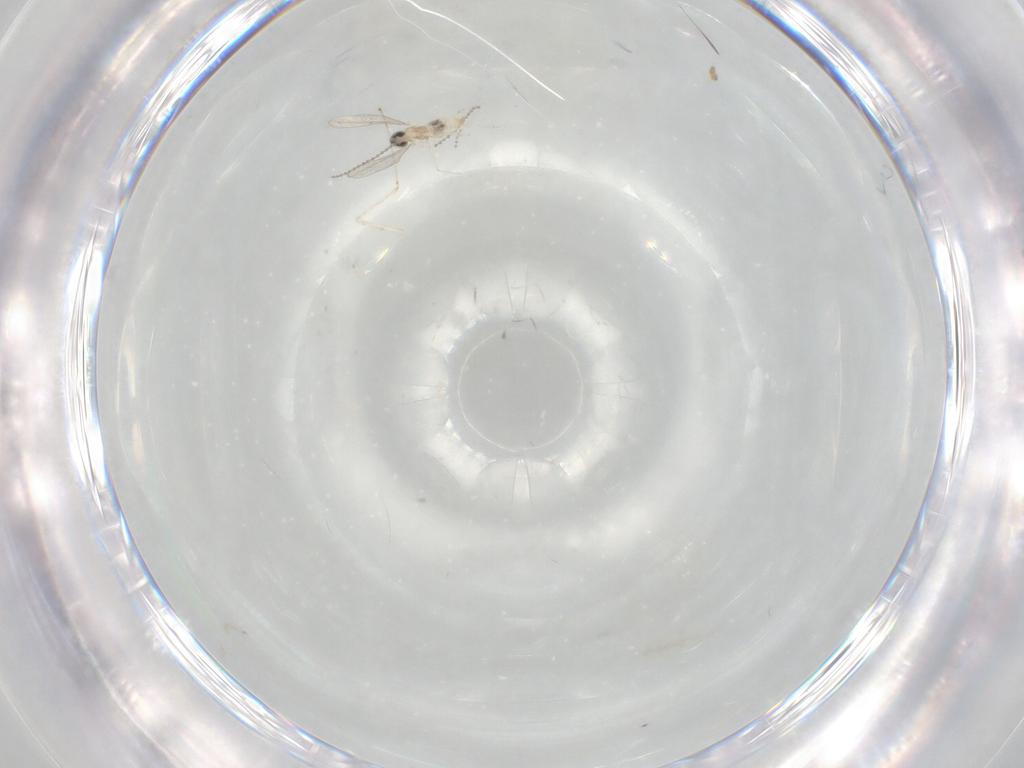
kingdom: Animalia
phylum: Arthropoda
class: Insecta
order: Diptera
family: Cecidomyiidae
